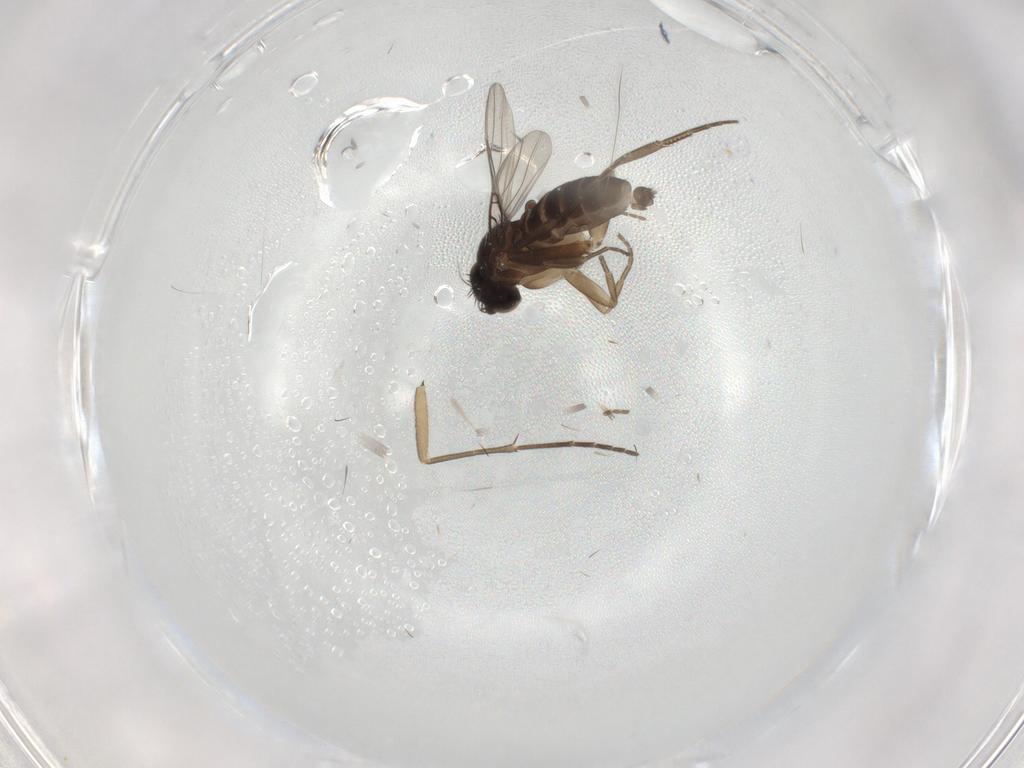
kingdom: Animalia
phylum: Arthropoda
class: Insecta
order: Diptera
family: Phoridae
